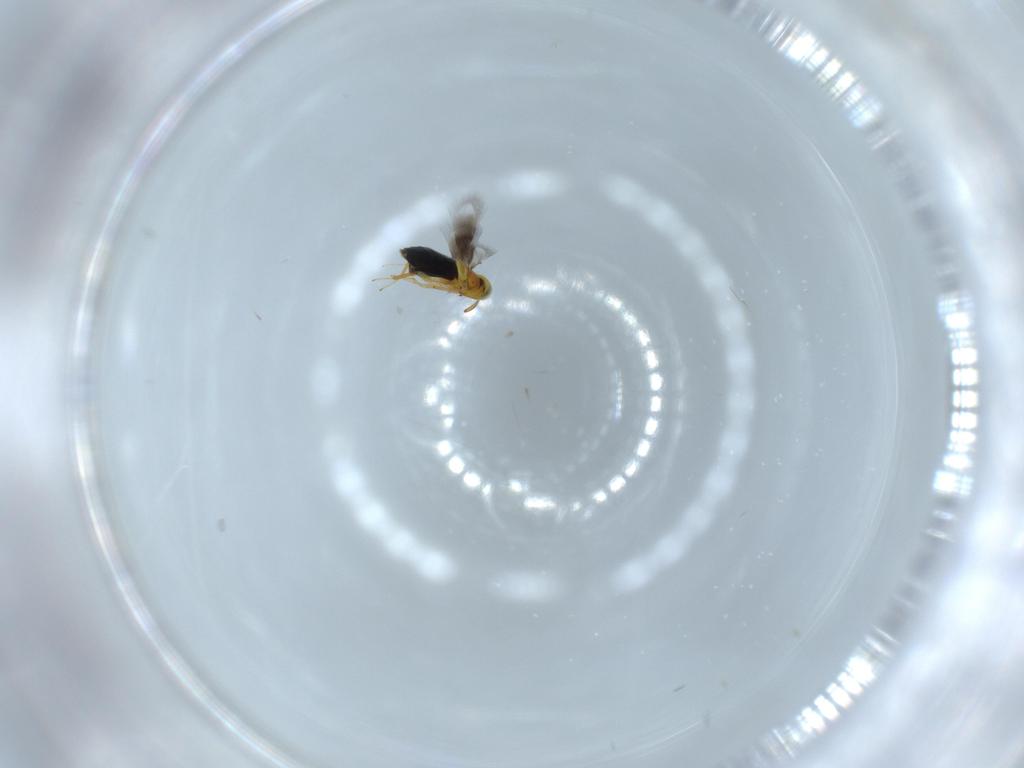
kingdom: Animalia
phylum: Arthropoda
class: Insecta
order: Hymenoptera
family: Signiphoridae
